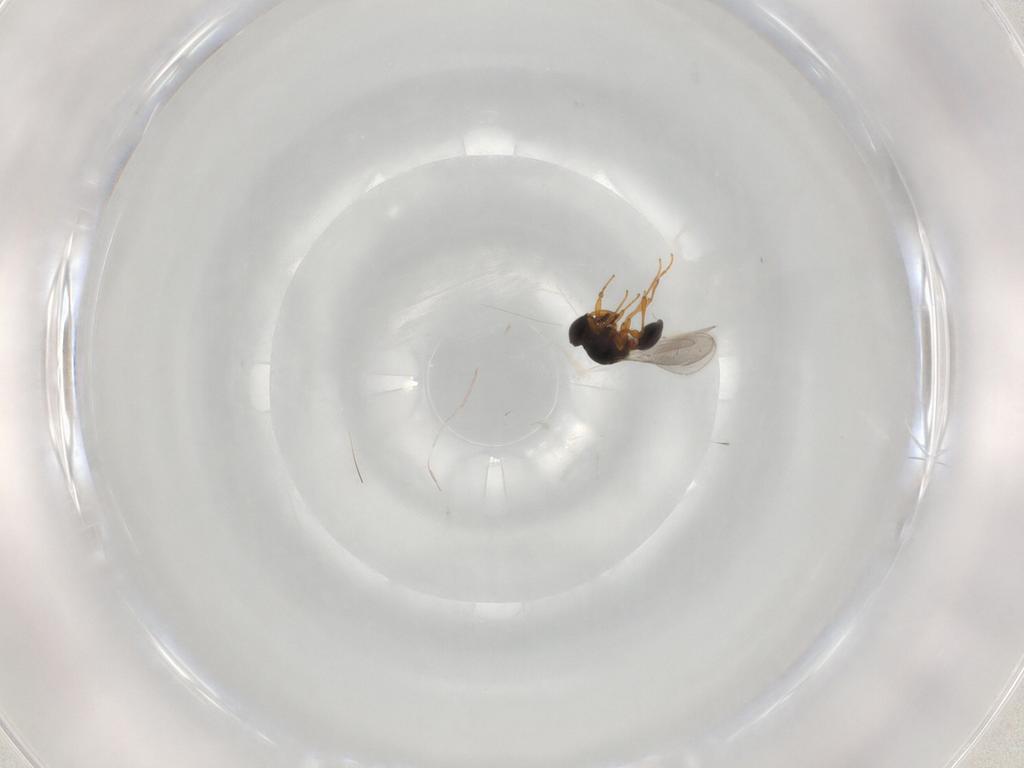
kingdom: Animalia
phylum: Arthropoda
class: Insecta
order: Hymenoptera
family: Platygastridae
